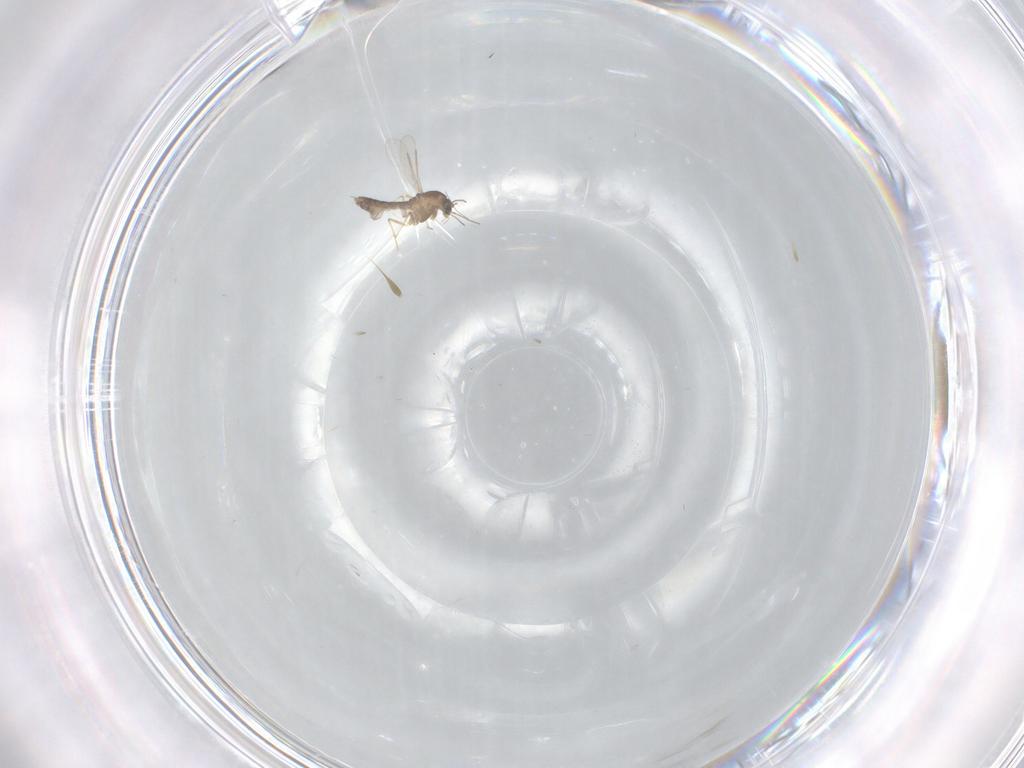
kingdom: Animalia
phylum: Arthropoda
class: Insecta
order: Diptera
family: Chironomidae
